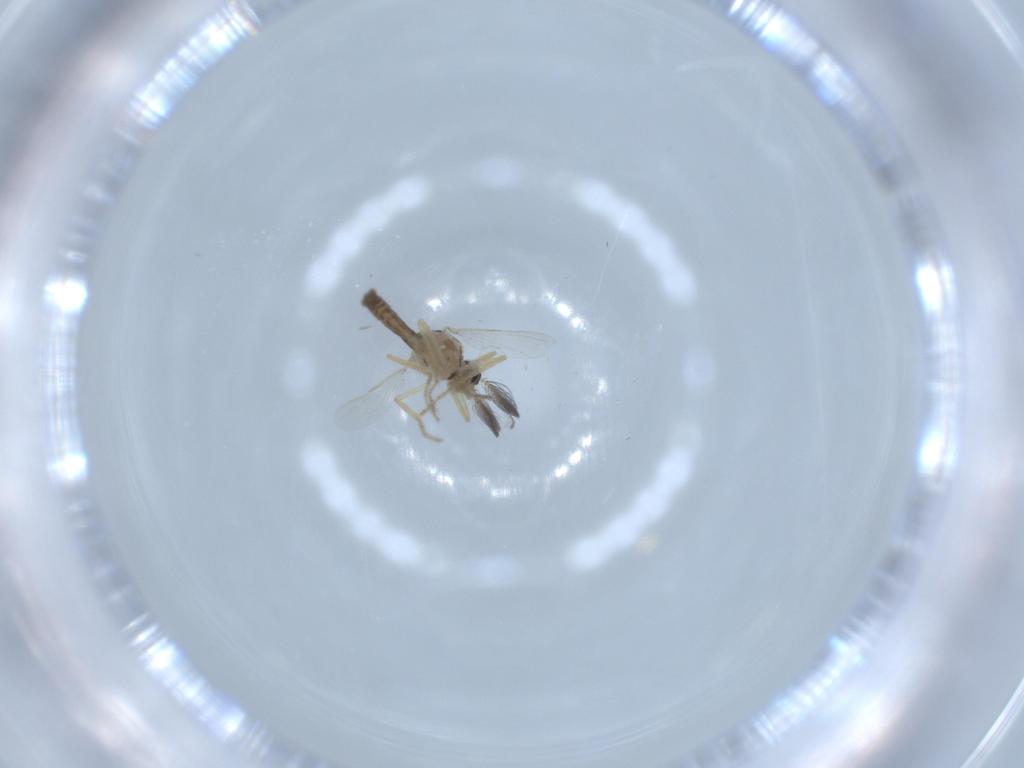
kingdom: Animalia
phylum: Arthropoda
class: Insecta
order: Diptera
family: Ceratopogonidae
